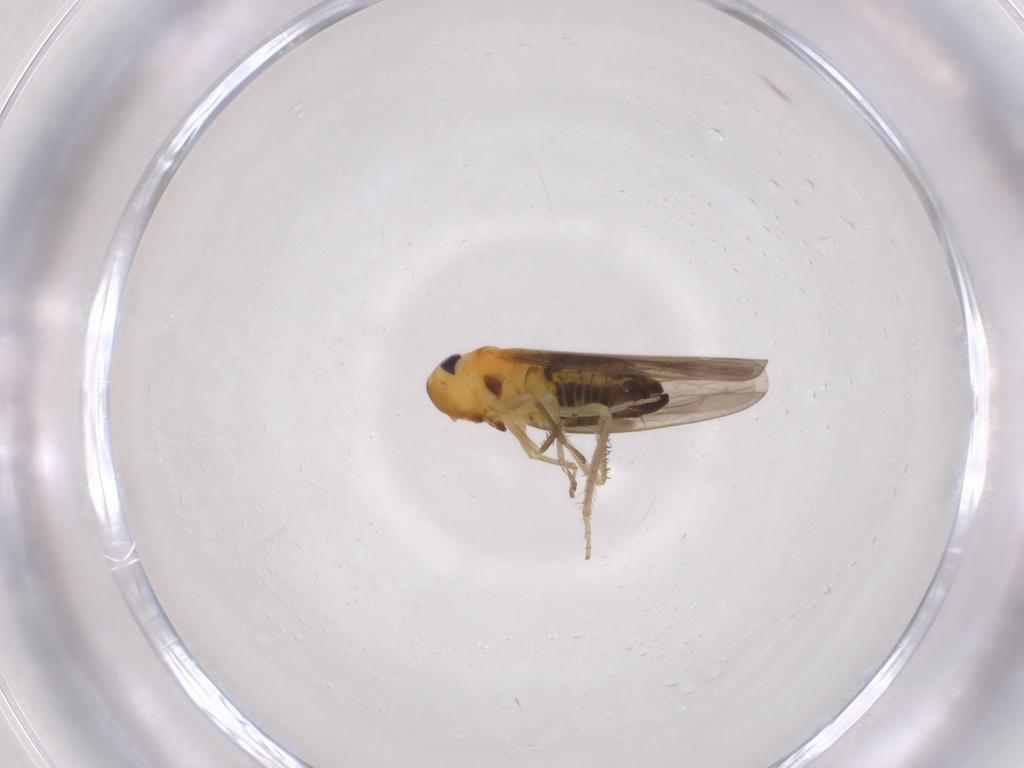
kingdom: Animalia
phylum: Arthropoda
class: Insecta
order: Hemiptera
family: Cicadellidae
